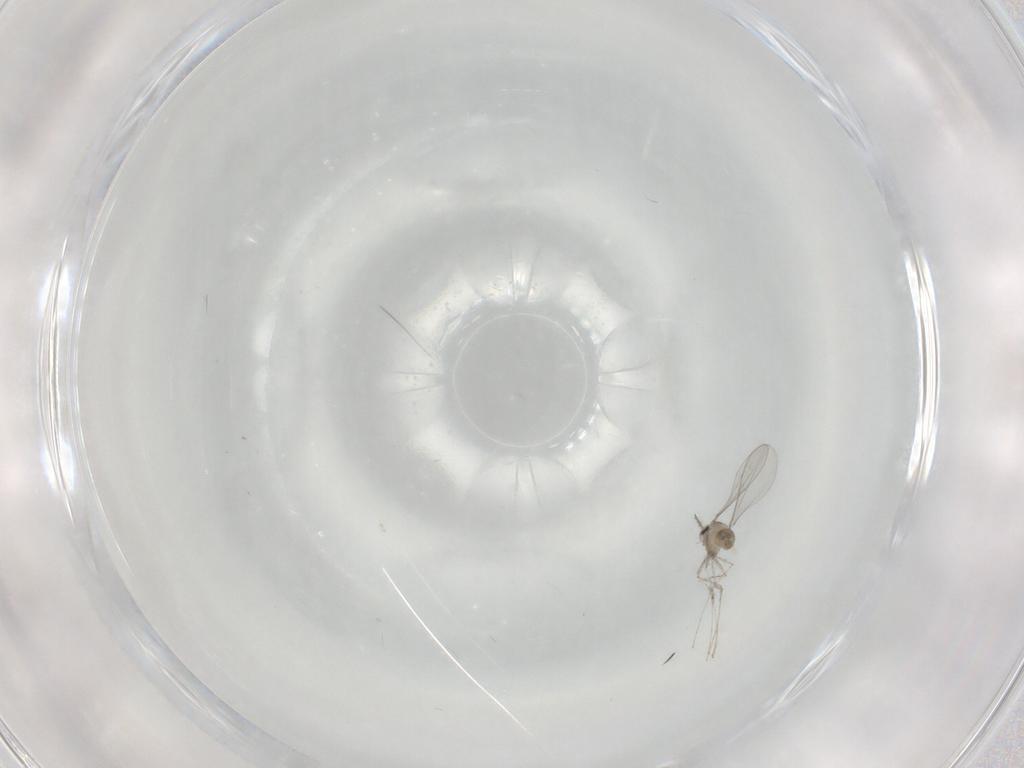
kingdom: Animalia
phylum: Arthropoda
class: Insecta
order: Diptera
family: Cecidomyiidae
